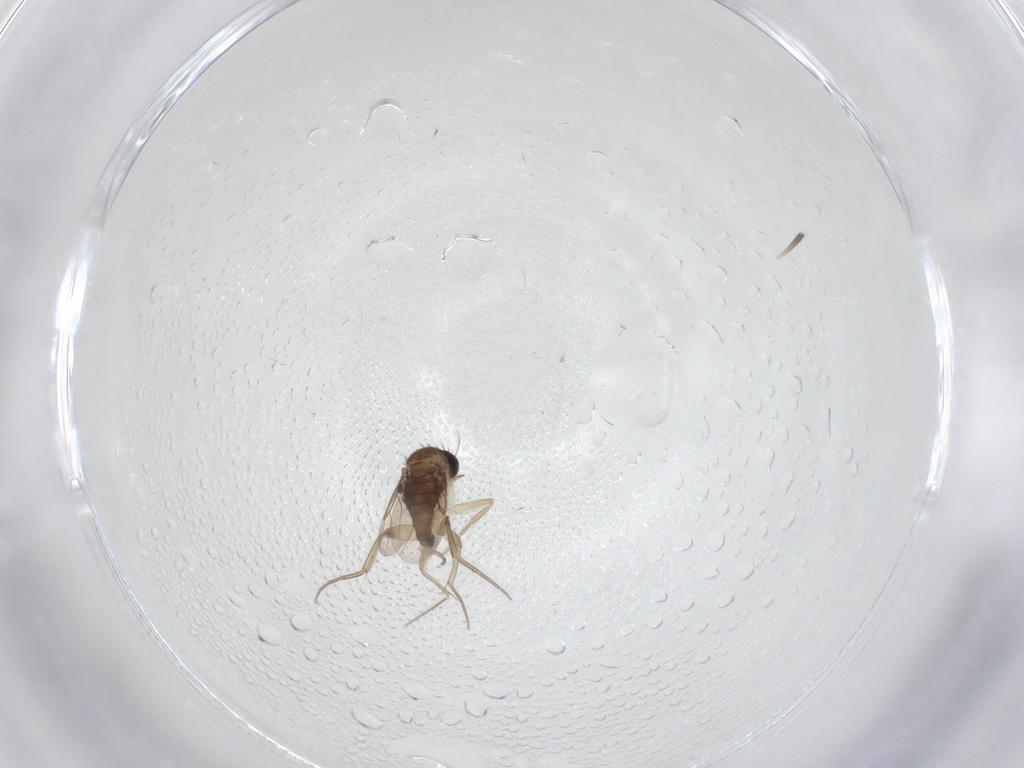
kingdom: Animalia
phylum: Arthropoda
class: Insecta
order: Diptera
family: Phoridae
